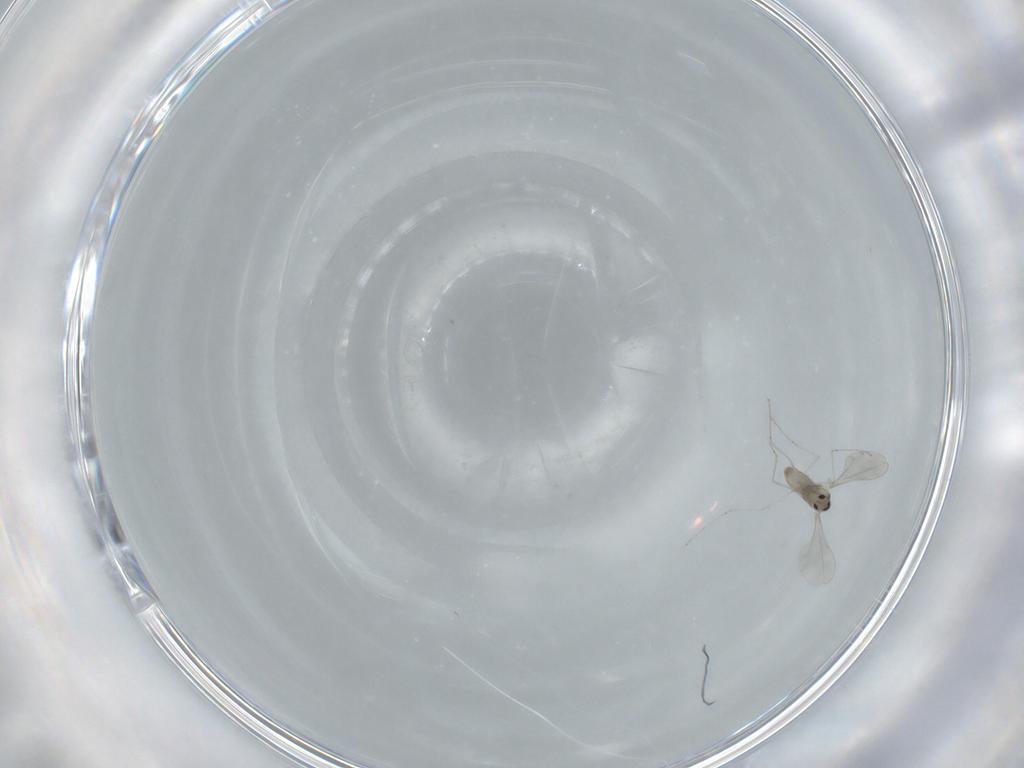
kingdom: Animalia
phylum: Arthropoda
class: Insecta
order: Diptera
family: Cecidomyiidae
